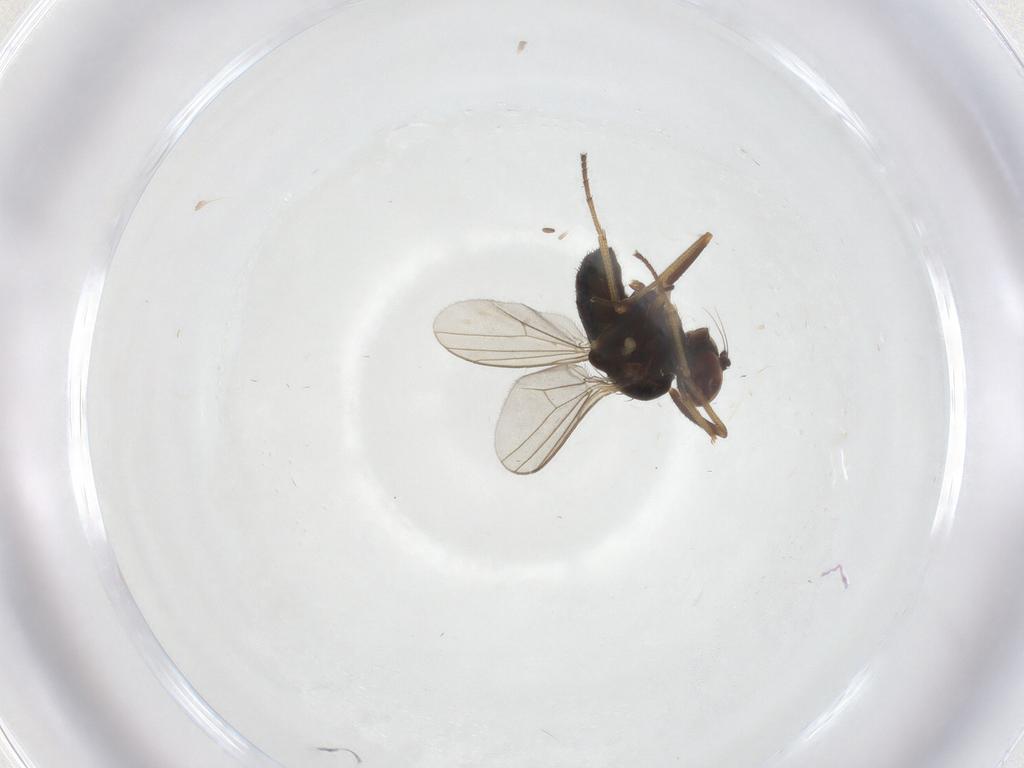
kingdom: Animalia
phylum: Arthropoda
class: Insecta
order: Diptera
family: Dolichopodidae
